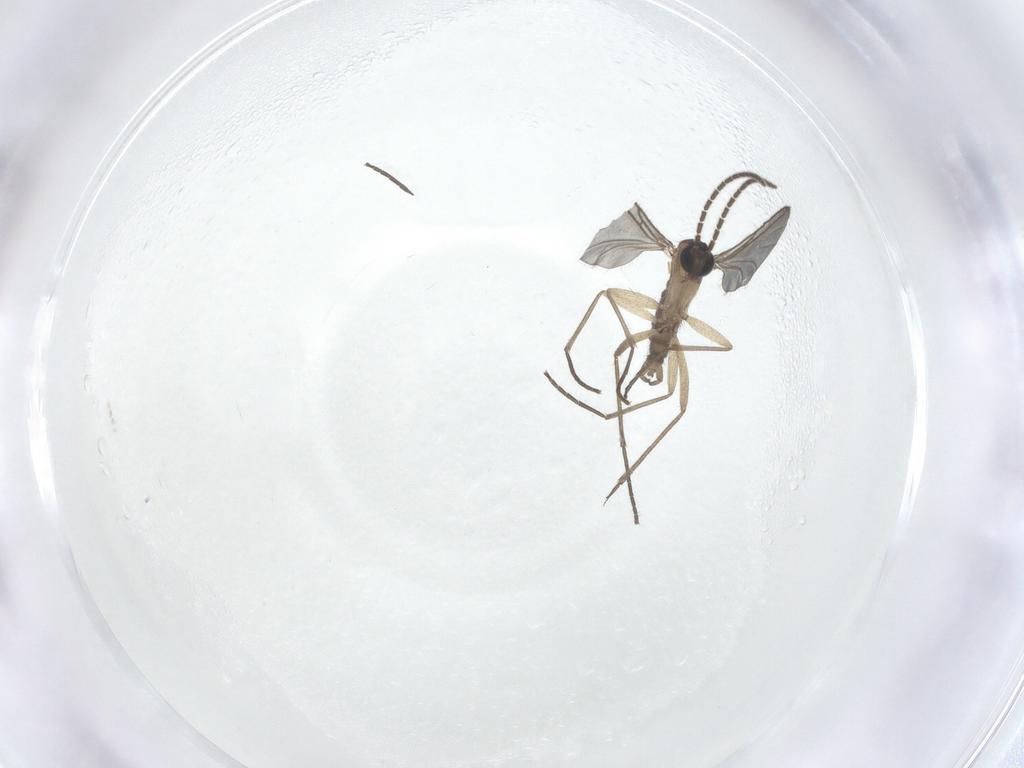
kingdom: Animalia
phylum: Arthropoda
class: Insecta
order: Diptera
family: Sciaridae
